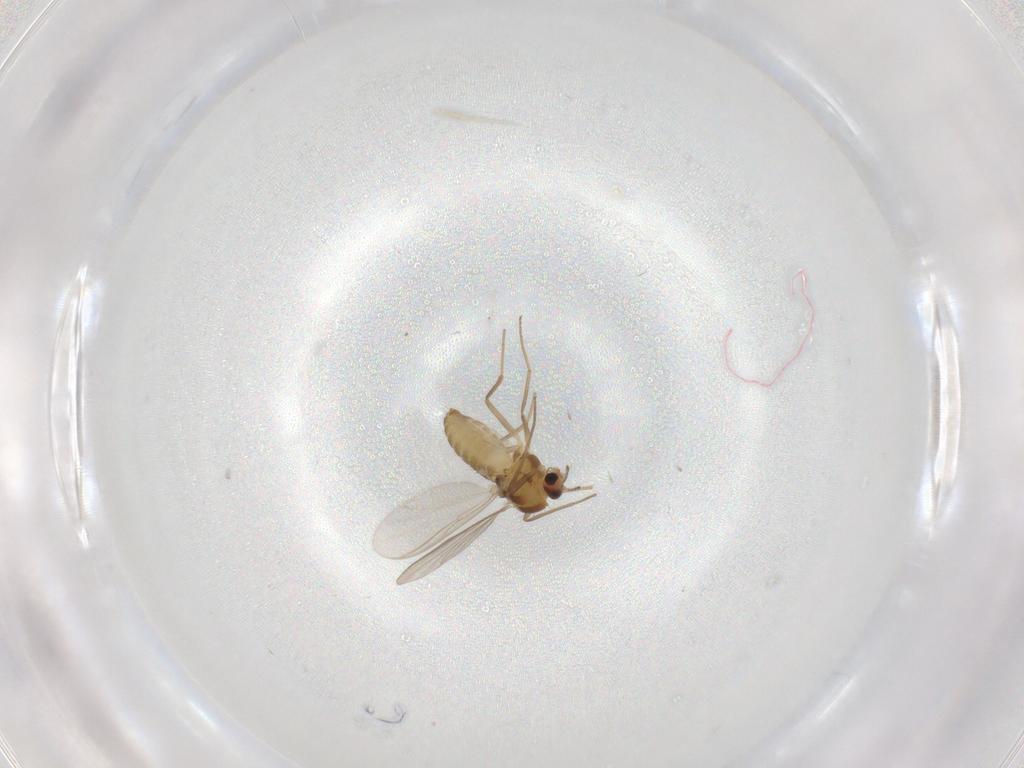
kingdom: Animalia
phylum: Arthropoda
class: Insecta
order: Diptera
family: Chironomidae
